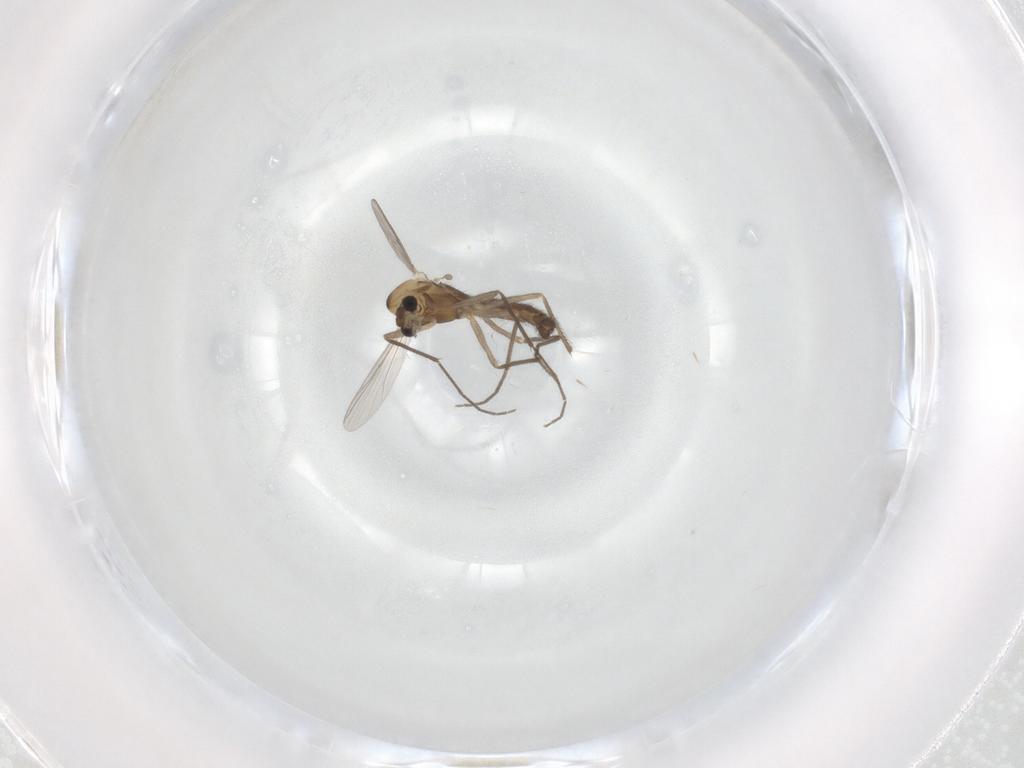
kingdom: Animalia
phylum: Arthropoda
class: Insecta
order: Diptera
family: Chironomidae
